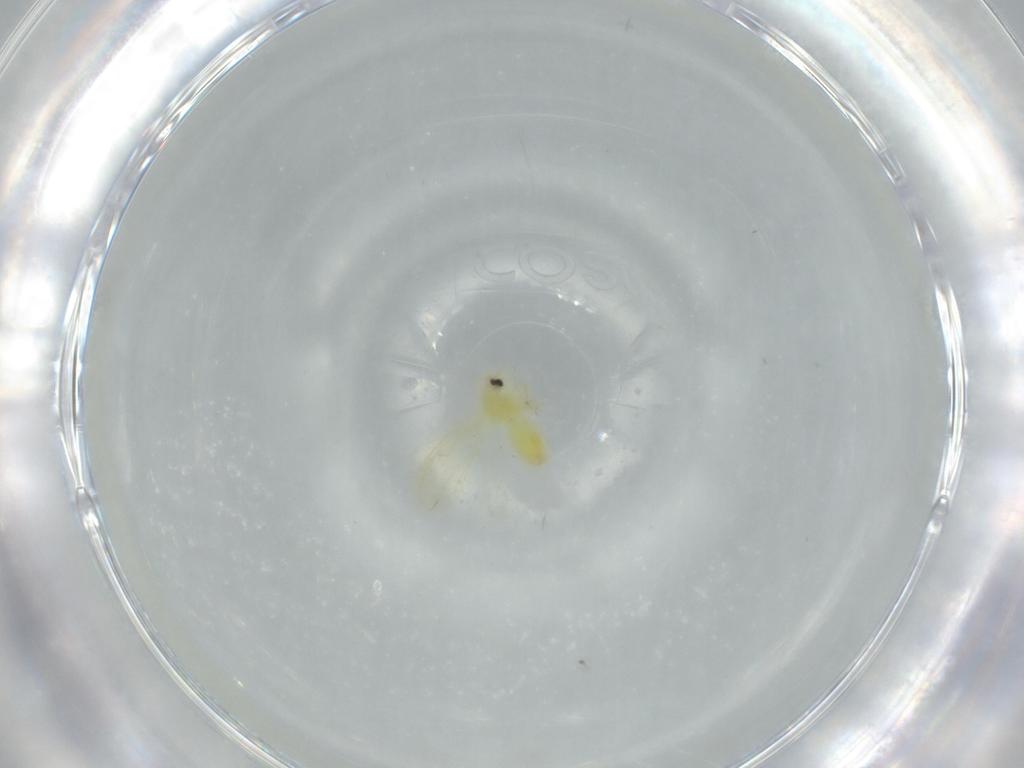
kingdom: Animalia
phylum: Arthropoda
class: Insecta
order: Hemiptera
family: Aleyrodidae
